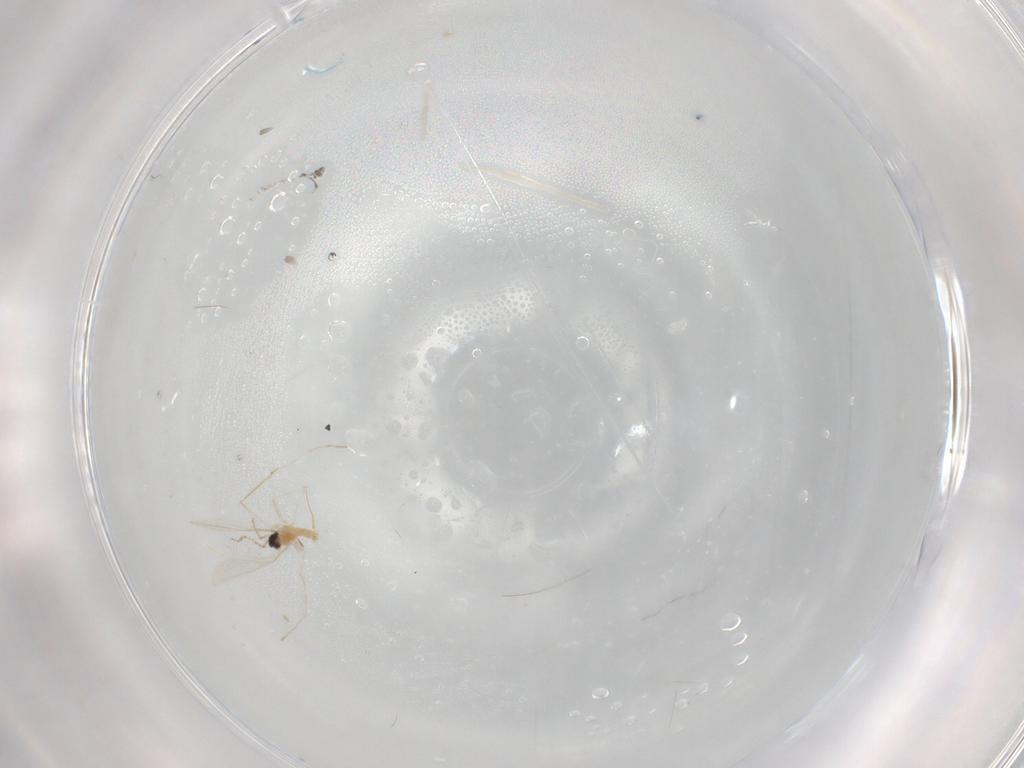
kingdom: Animalia
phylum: Arthropoda
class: Insecta
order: Diptera
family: Cecidomyiidae
